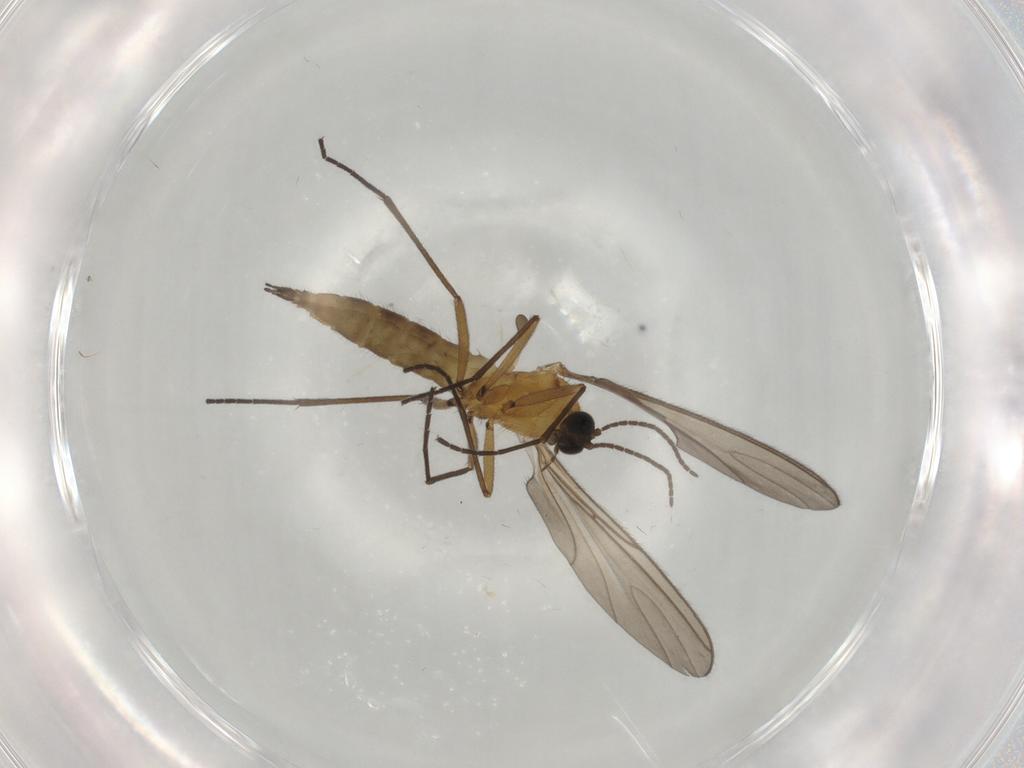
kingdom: Animalia
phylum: Arthropoda
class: Insecta
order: Diptera
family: Sciaridae
